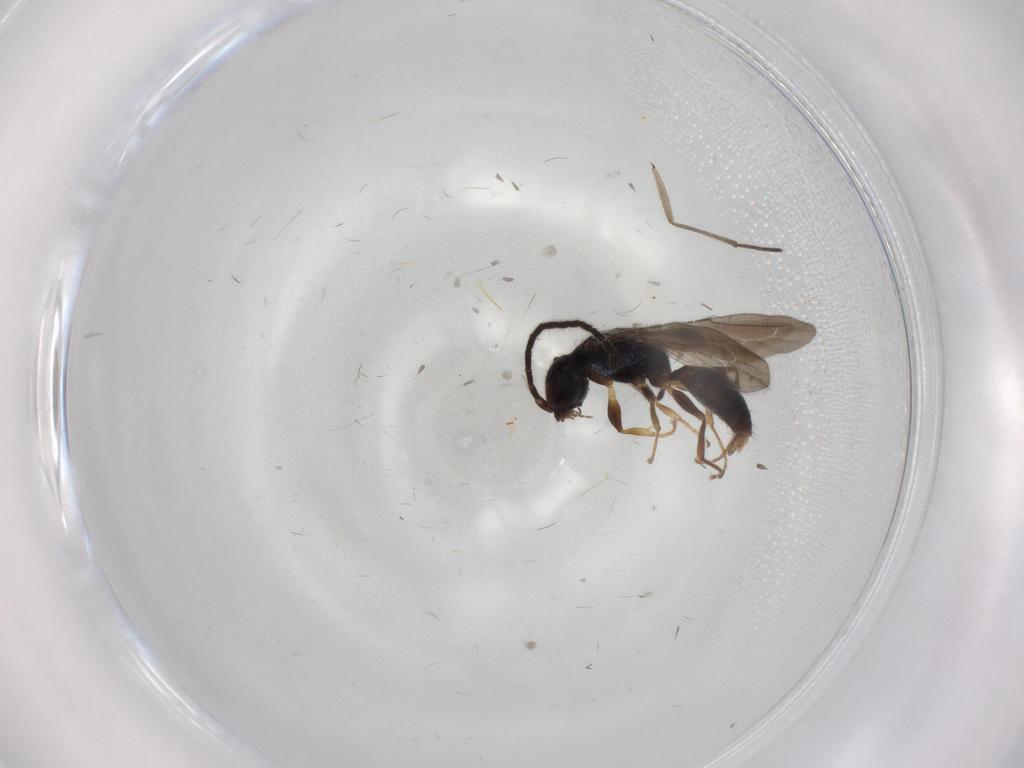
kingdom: Animalia
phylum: Arthropoda
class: Insecta
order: Hymenoptera
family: Bethylidae
